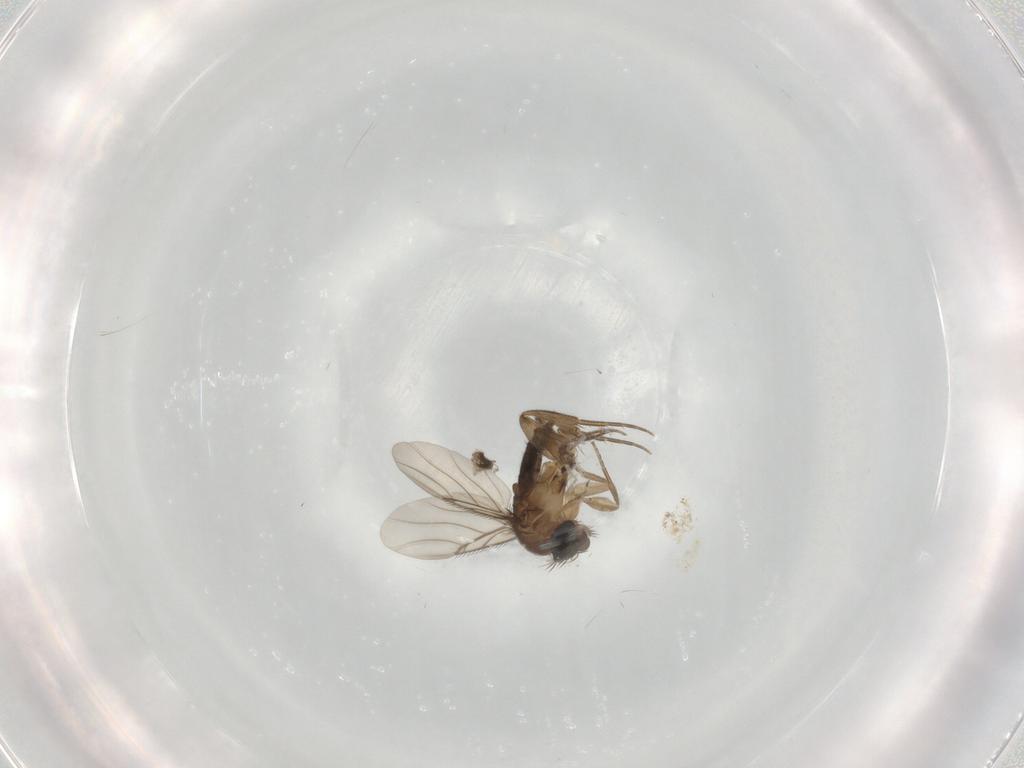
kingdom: Animalia
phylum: Arthropoda
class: Insecta
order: Diptera
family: Phoridae
